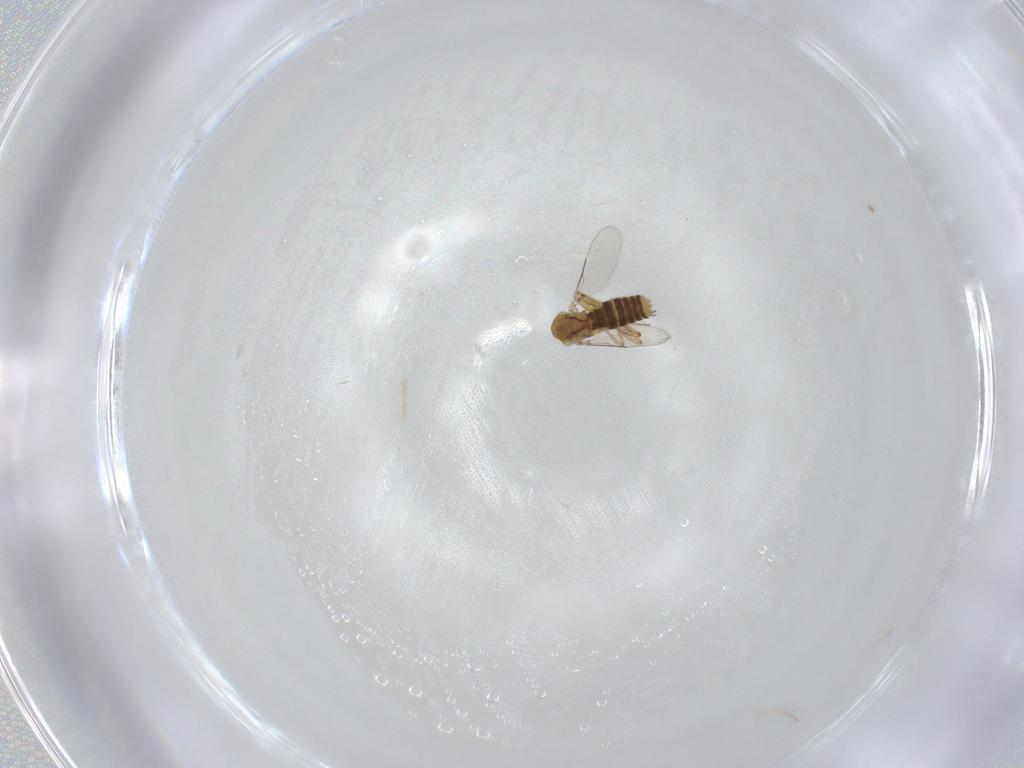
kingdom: Animalia
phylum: Arthropoda
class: Insecta
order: Diptera
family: Ceratopogonidae
